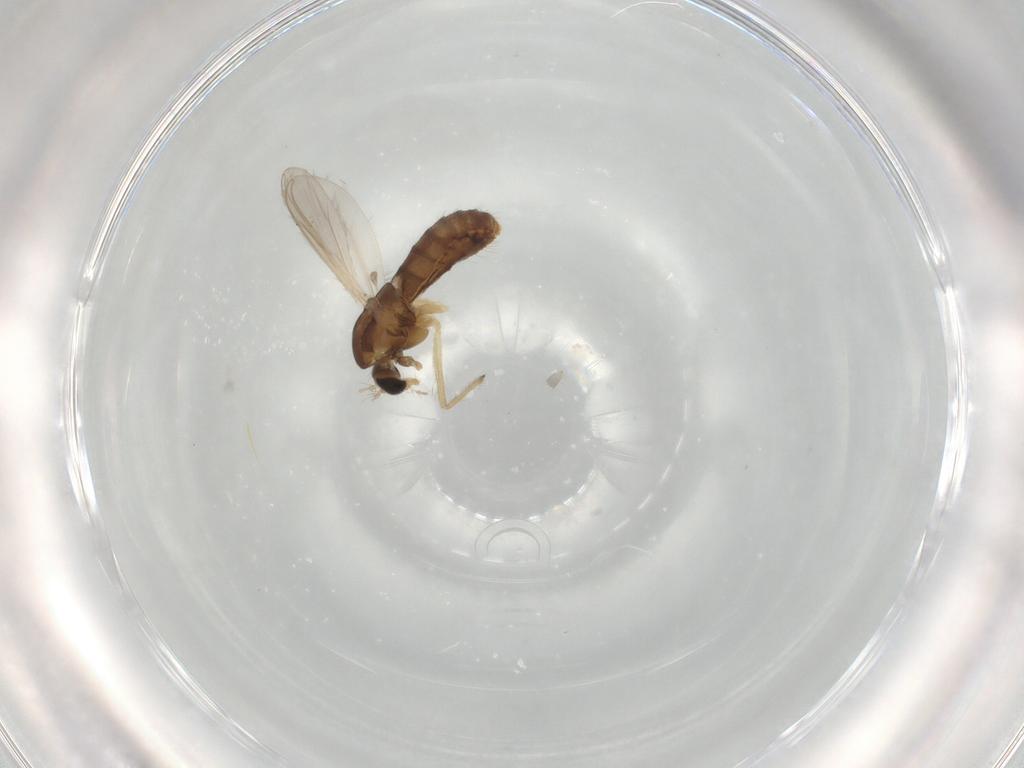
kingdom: Animalia
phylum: Arthropoda
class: Insecta
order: Diptera
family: Chironomidae
